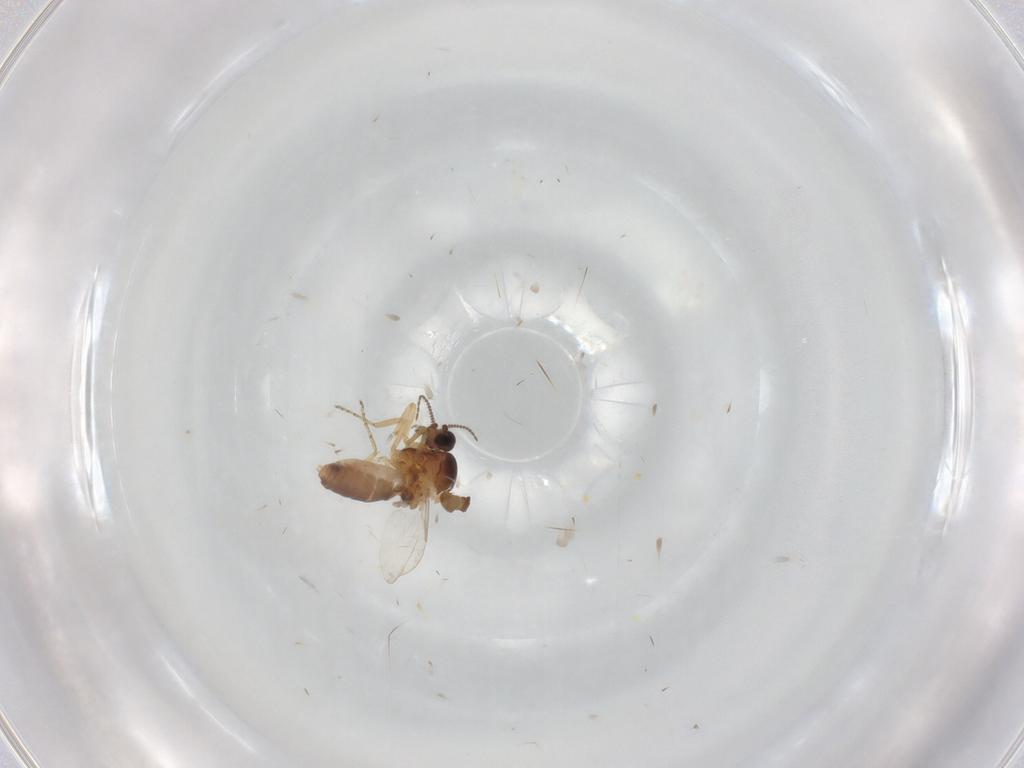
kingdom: Animalia
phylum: Arthropoda
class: Insecta
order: Diptera
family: Ceratopogonidae
